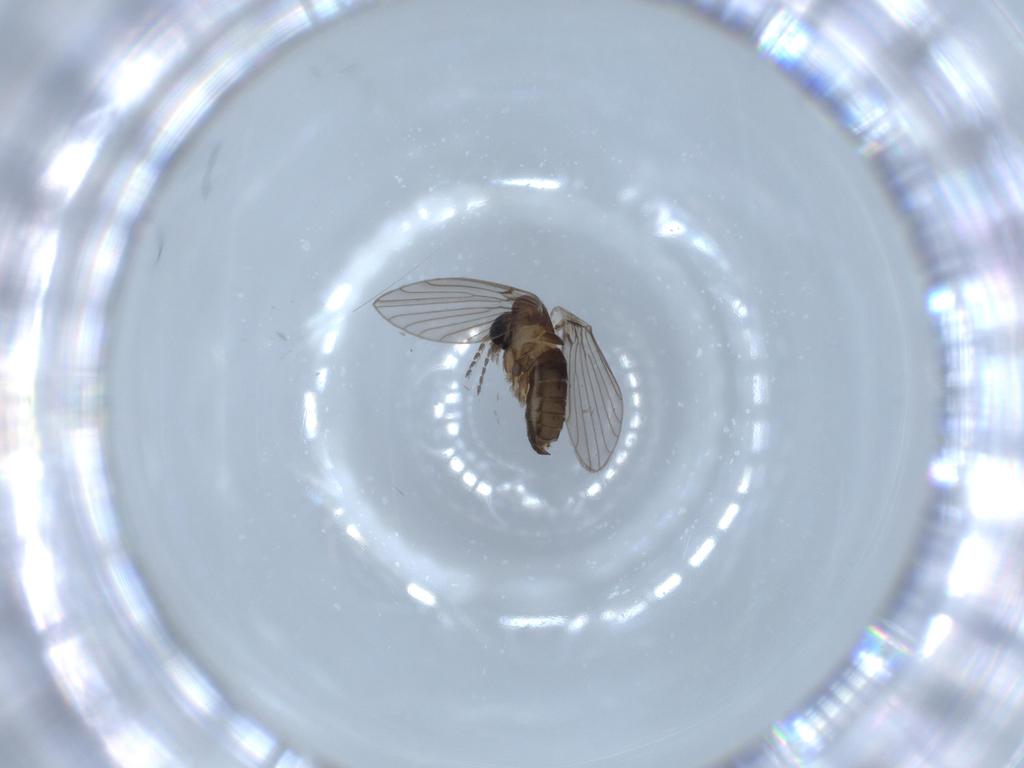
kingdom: Animalia
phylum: Arthropoda
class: Insecta
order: Diptera
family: Psychodidae
